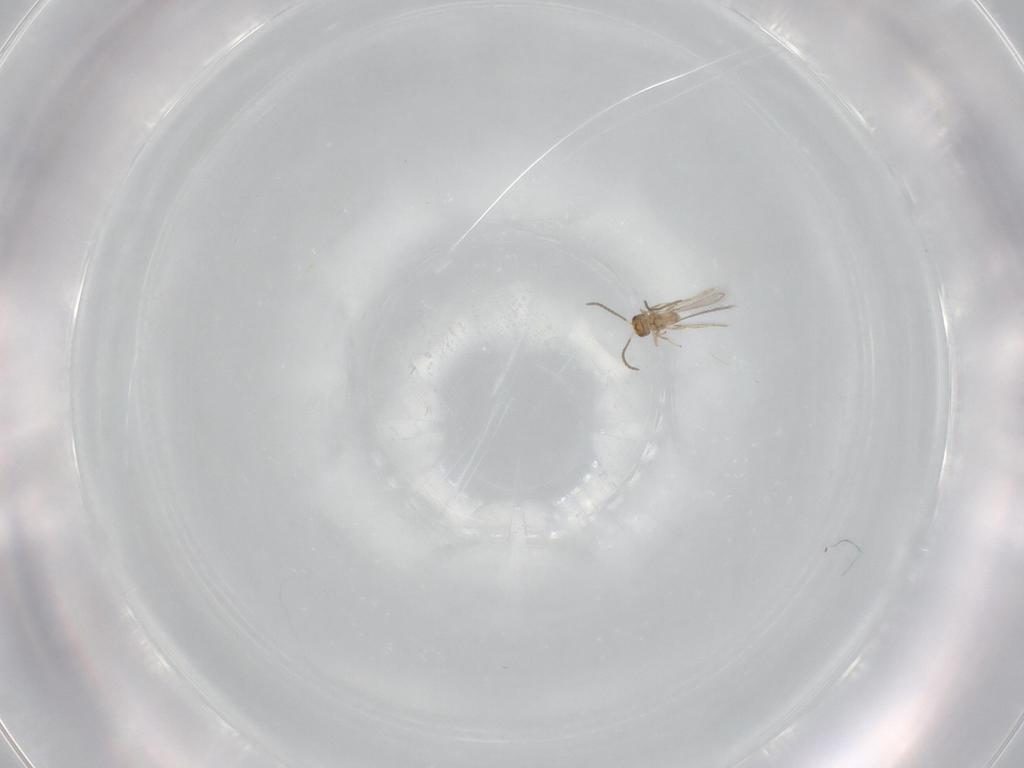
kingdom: Animalia
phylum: Arthropoda
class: Insecta
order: Diptera
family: Chironomidae
